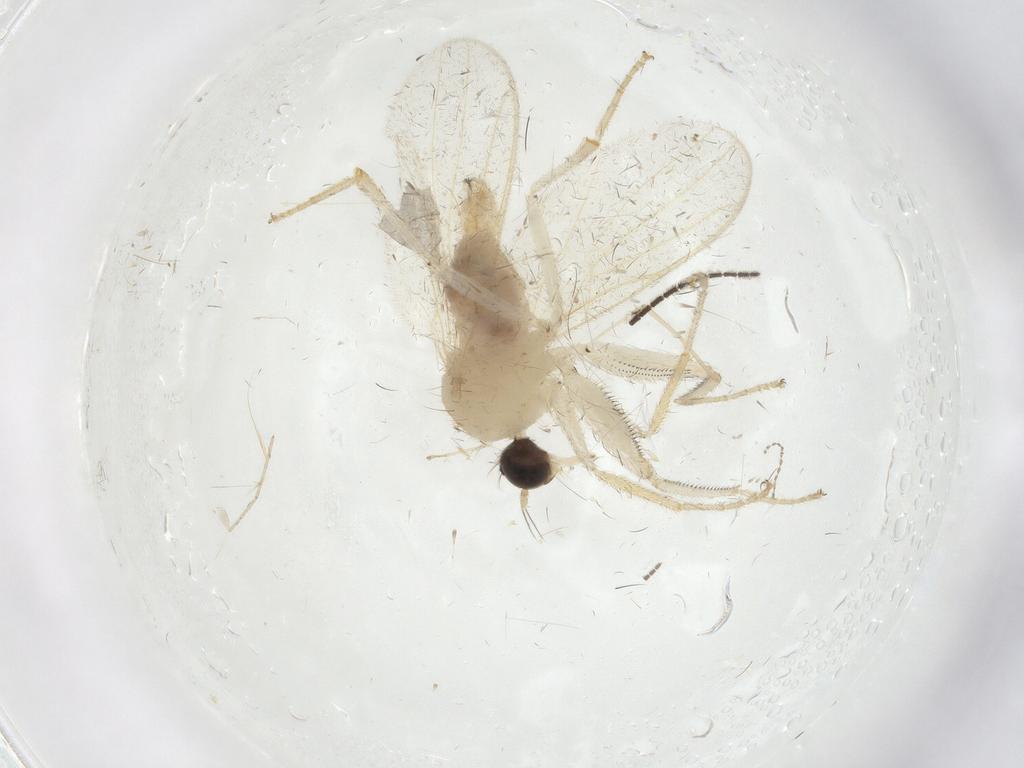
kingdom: Animalia
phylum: Arthropoda
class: Insecta
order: Diptera
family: Hybotidae
